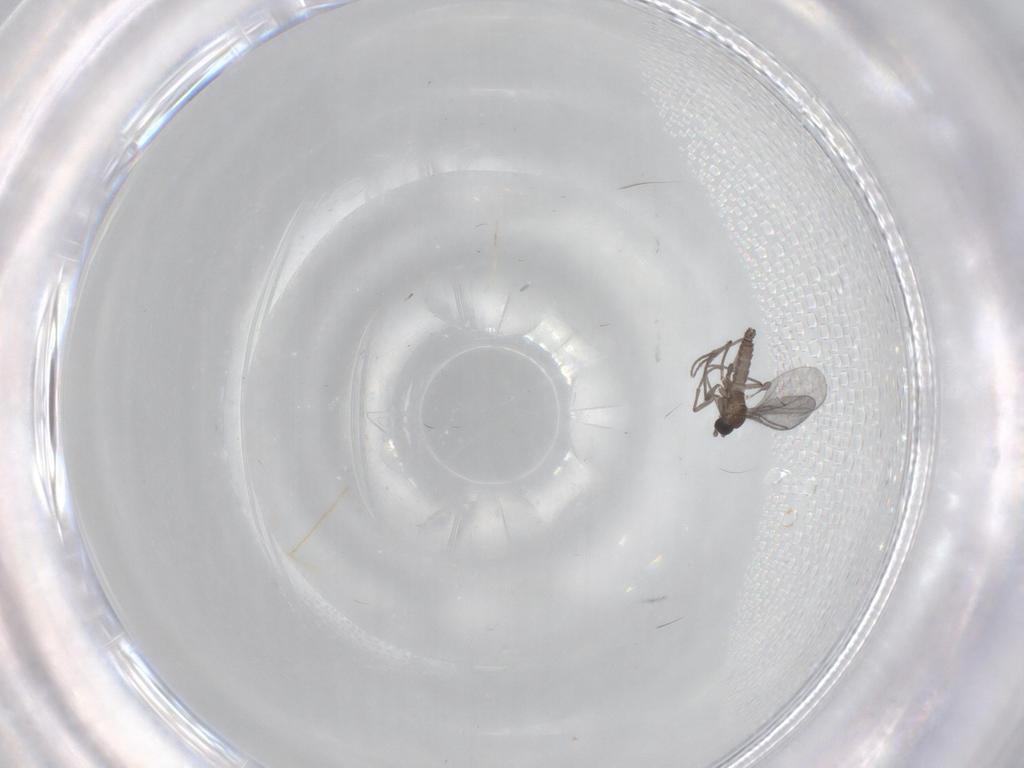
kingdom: Animalia
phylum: Arthropoda
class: Insecta
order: Diptera
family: Sciaridae
